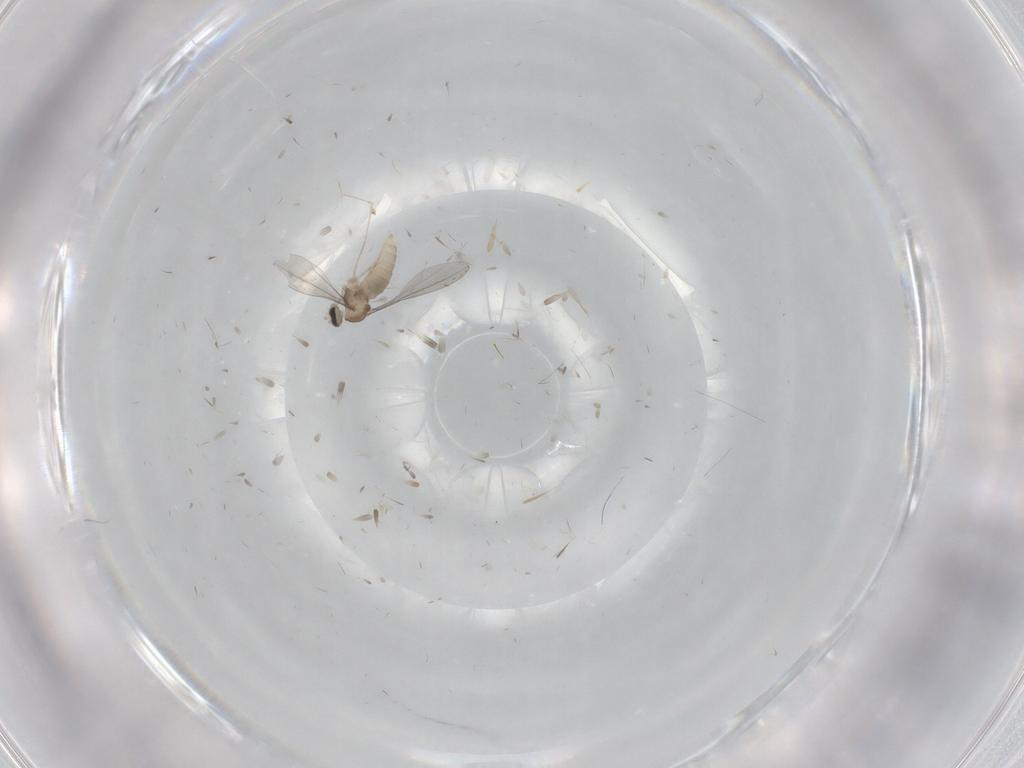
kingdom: Animalia
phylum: Arthropoda
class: Insecta
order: Diptera
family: Cecidomyiidae
